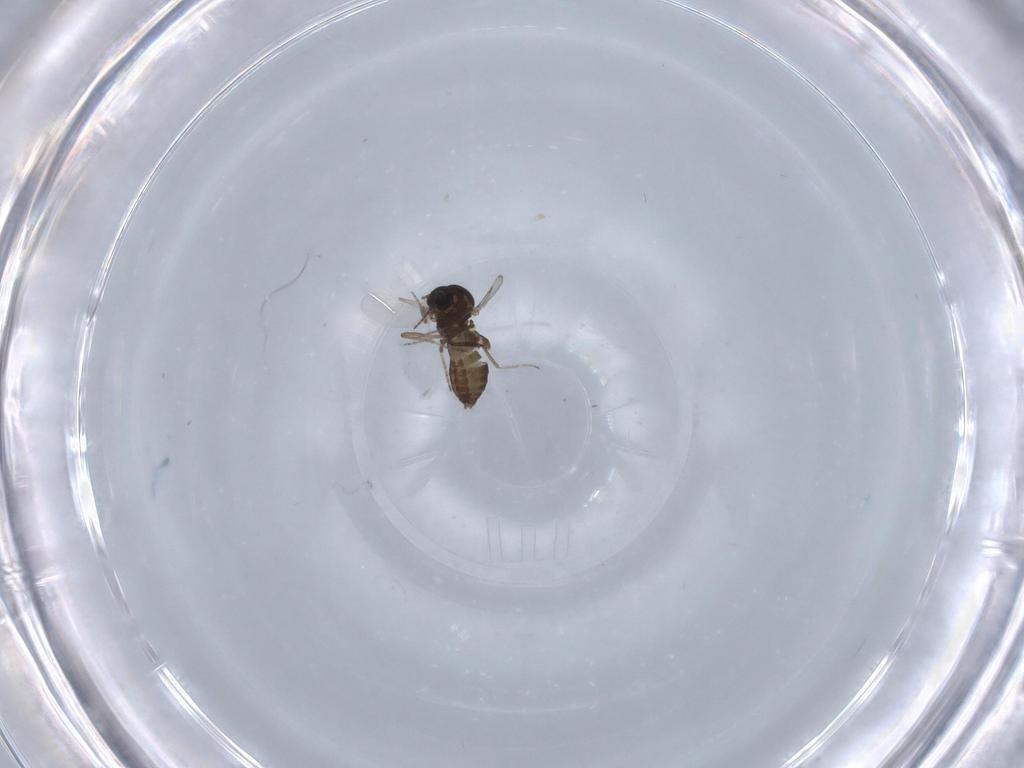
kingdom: Animalia
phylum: Arthropoda
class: Insecta
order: Diptera
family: Ceratopogonidae
